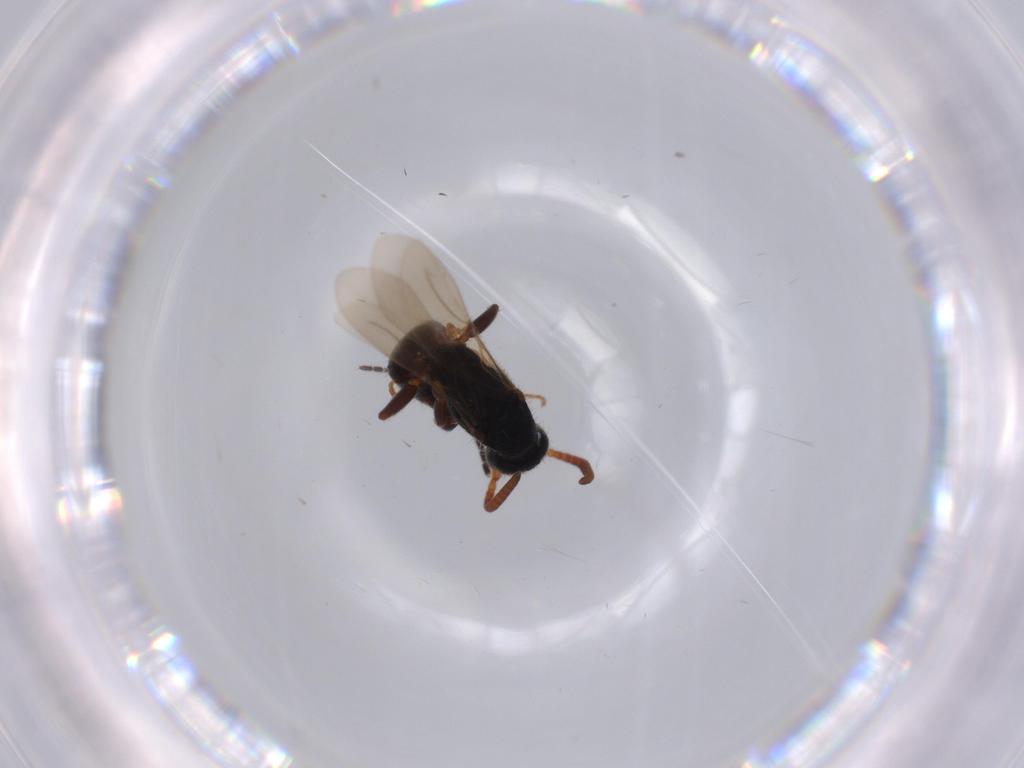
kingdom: Animalia
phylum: Arthropoda
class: Insecta
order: Hymenoptera
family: Bethylidae
